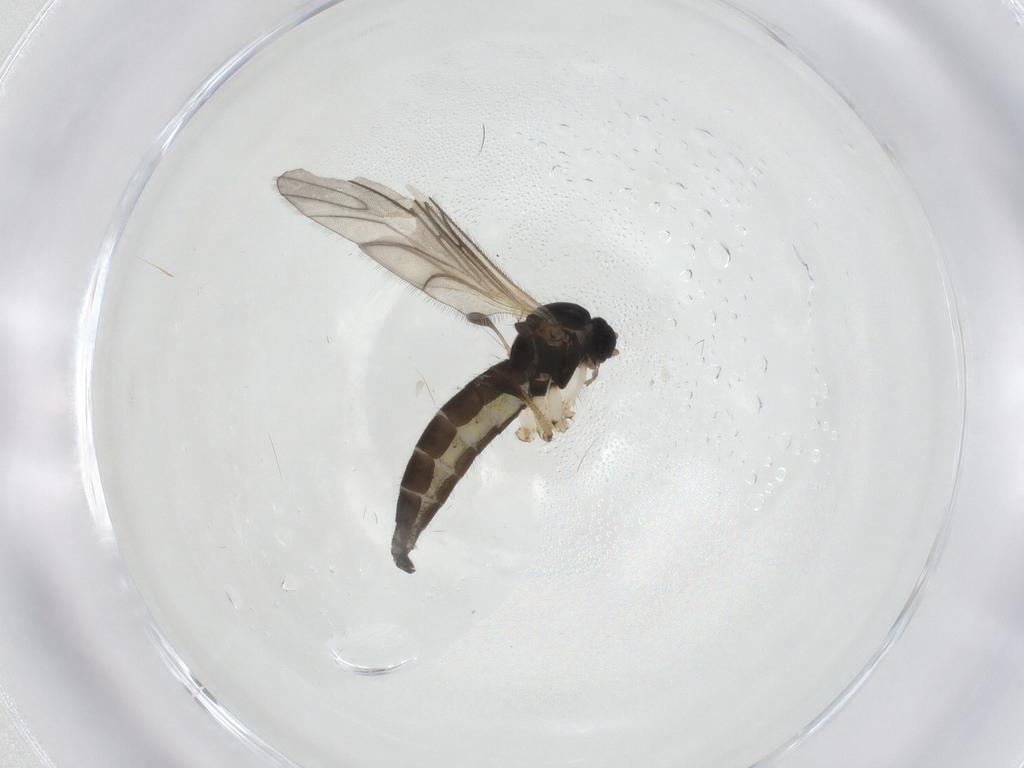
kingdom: Animalia
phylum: Arthropoda
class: Insecta
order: Diptera
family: Sciaridae
